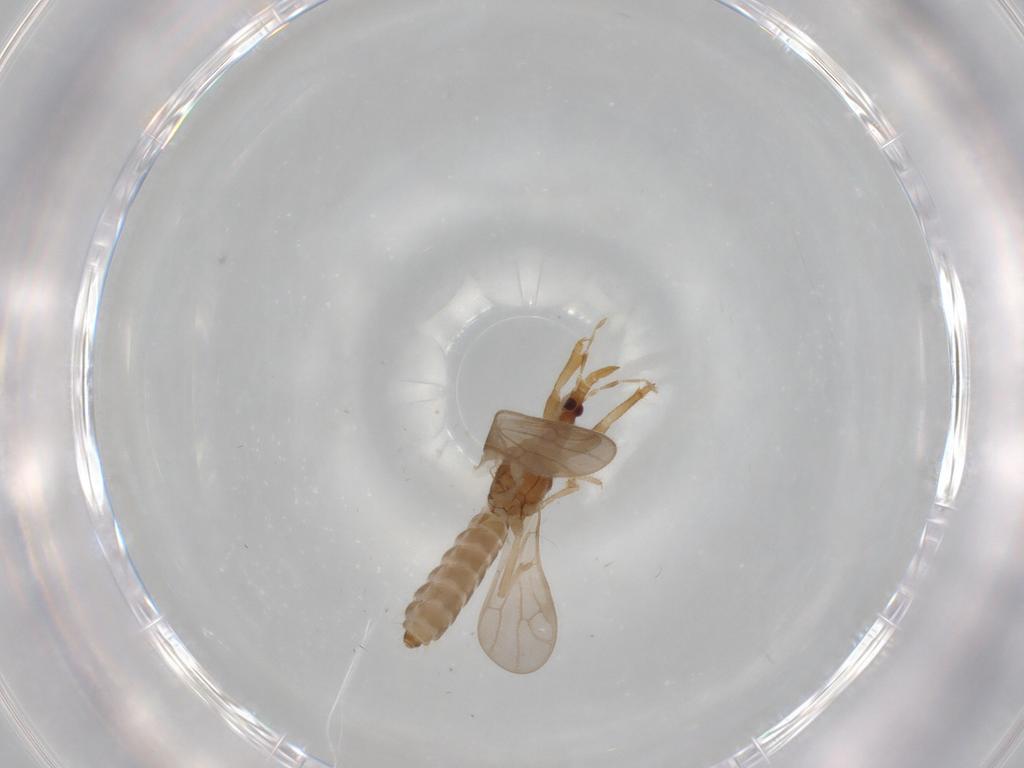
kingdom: Animalia
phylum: Arthropoda
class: Insecta
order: Hemiptera
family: Enicocephalidae
